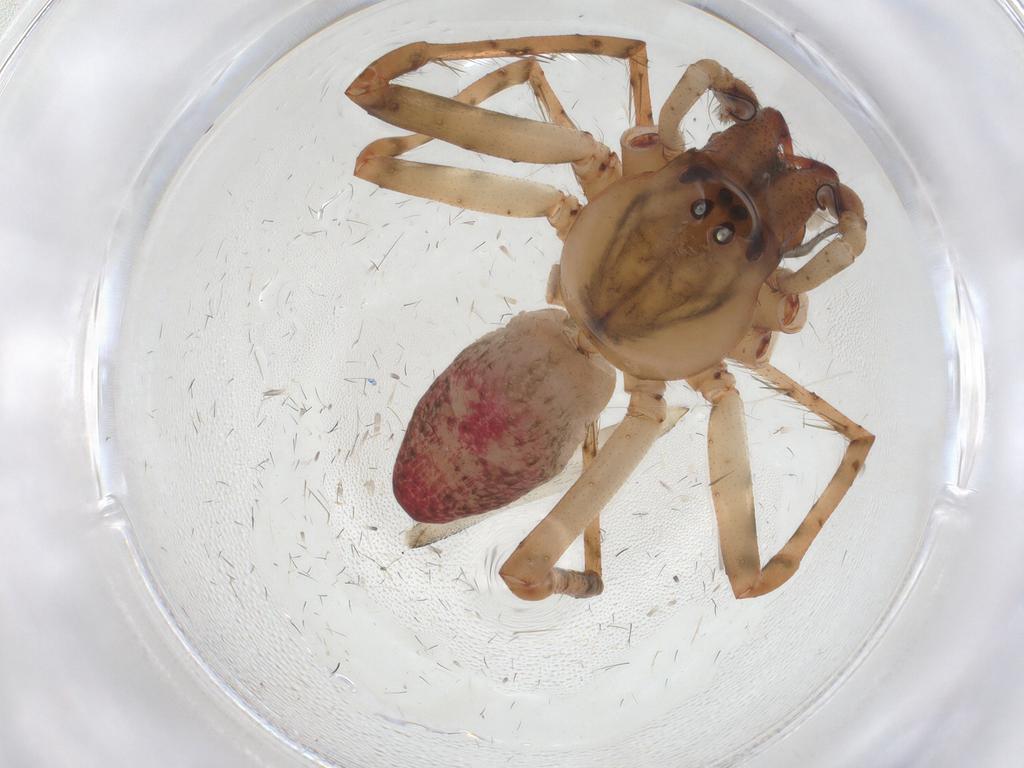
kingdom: Animalia
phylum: Arthropoda
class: Arachnida
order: Araneae
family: Dictynidae
